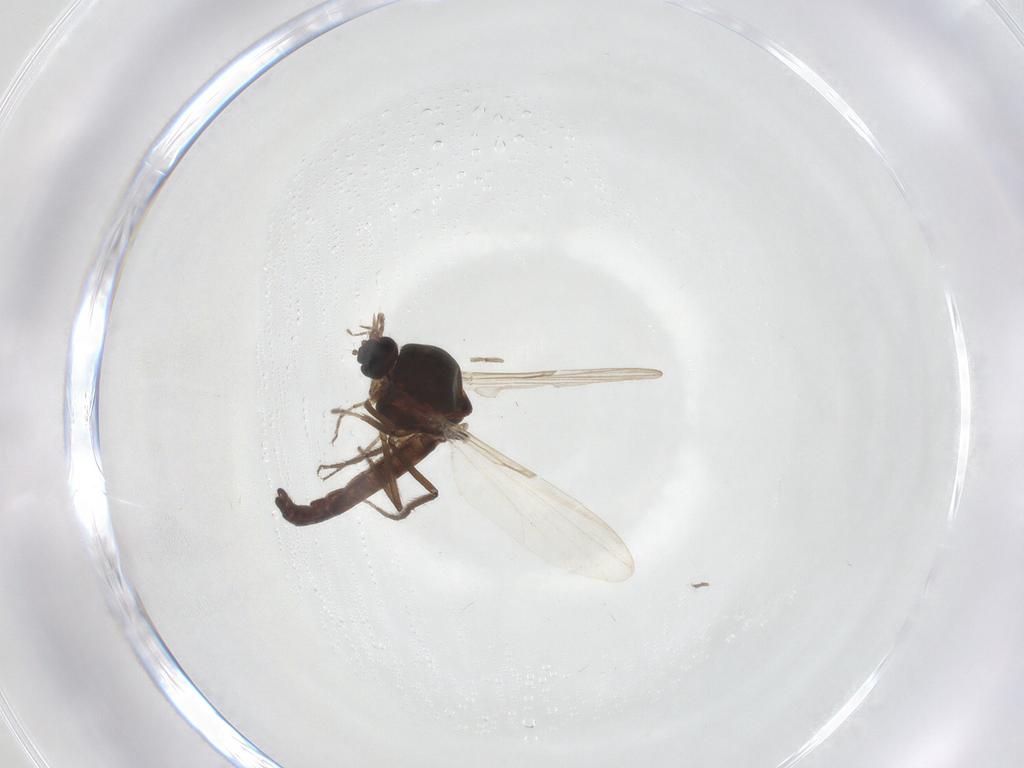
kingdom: Animalia
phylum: Arthropoda
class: Insecta
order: Diptera
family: Ceratopogonidae
